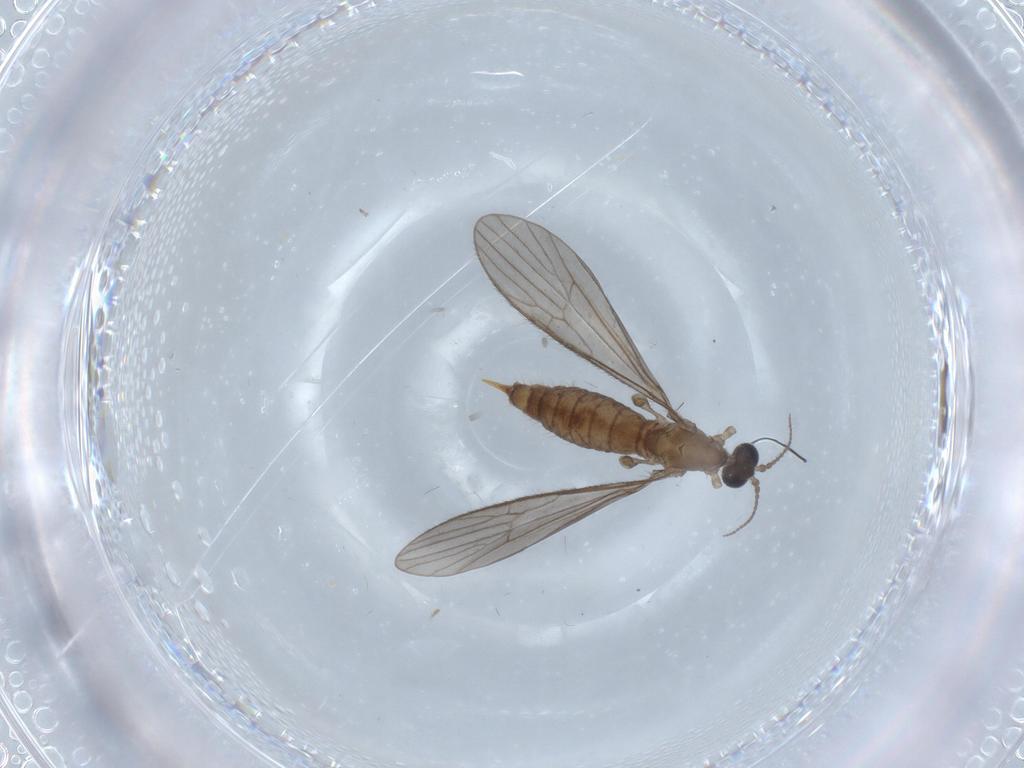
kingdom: Animalia
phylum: Arthropoda
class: Insecta
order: Diptera
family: Limoniidae
